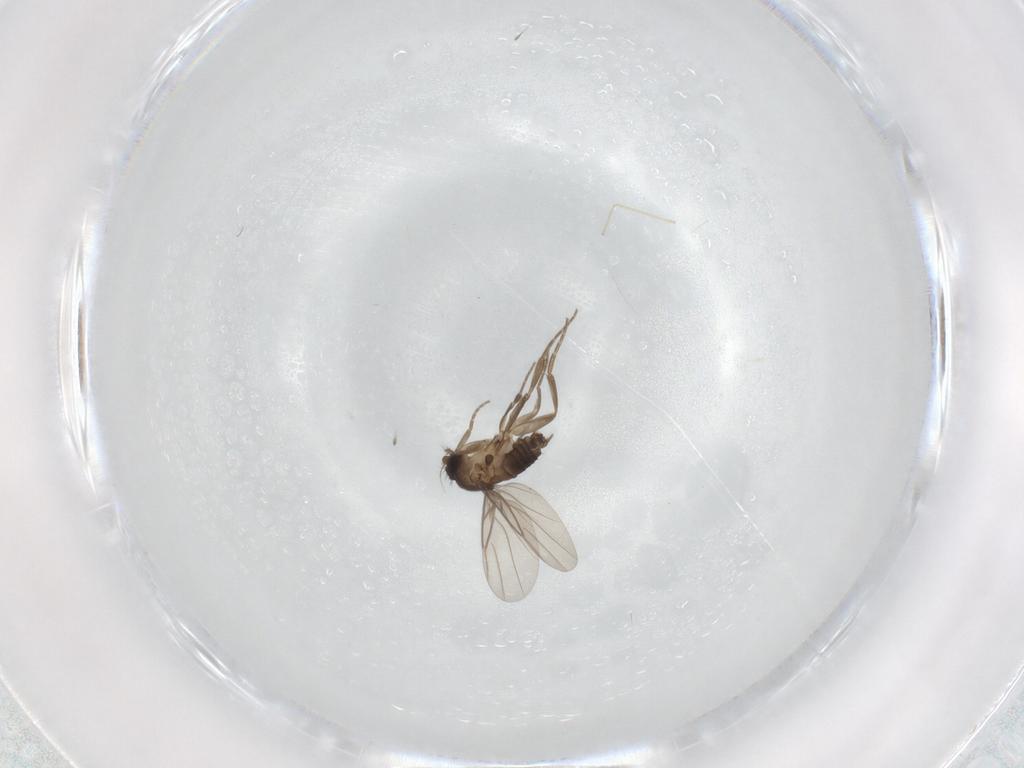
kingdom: Animalia
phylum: Arthropoda
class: Insecta
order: Diptera
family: Phoridae
